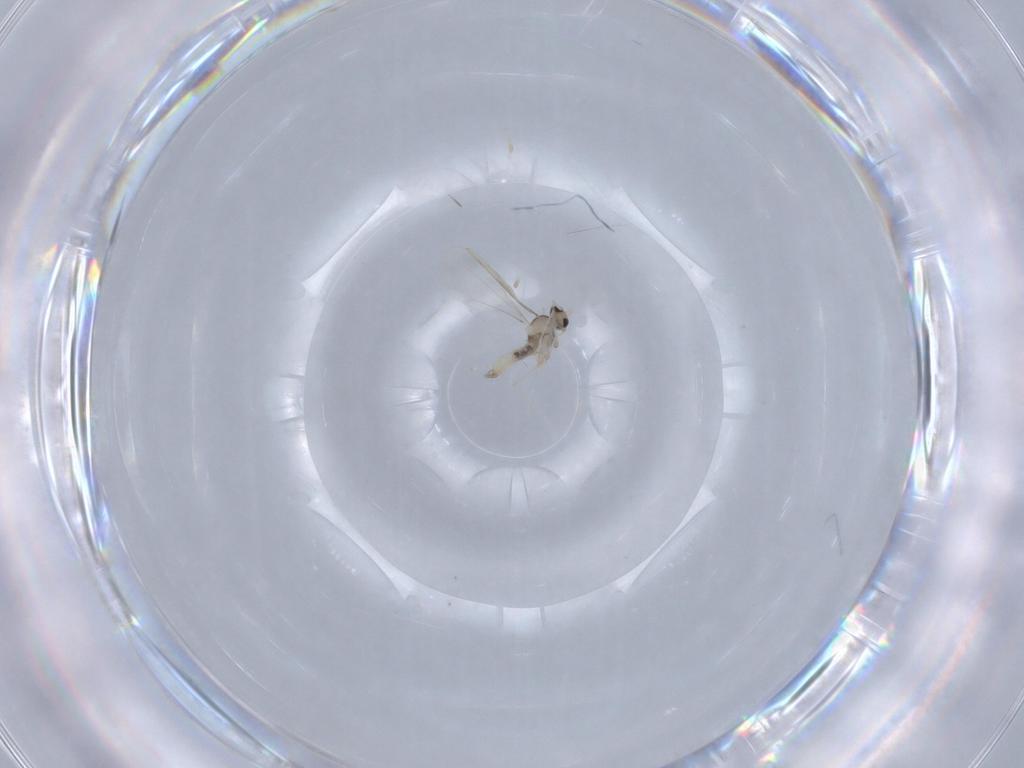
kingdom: Animalia
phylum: Arthropoda
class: Insecta
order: Diptera
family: Cecidomyiidae
